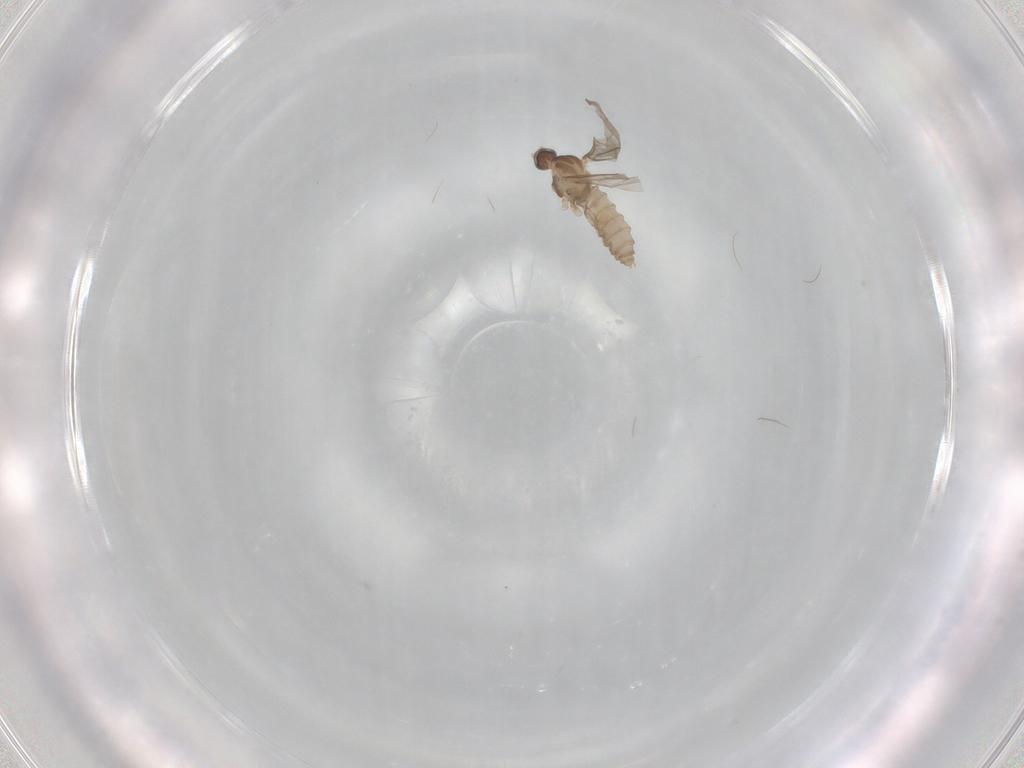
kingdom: Animalia
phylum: Arthropoda
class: Insecta
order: Diptera
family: Cecidomyiidae
